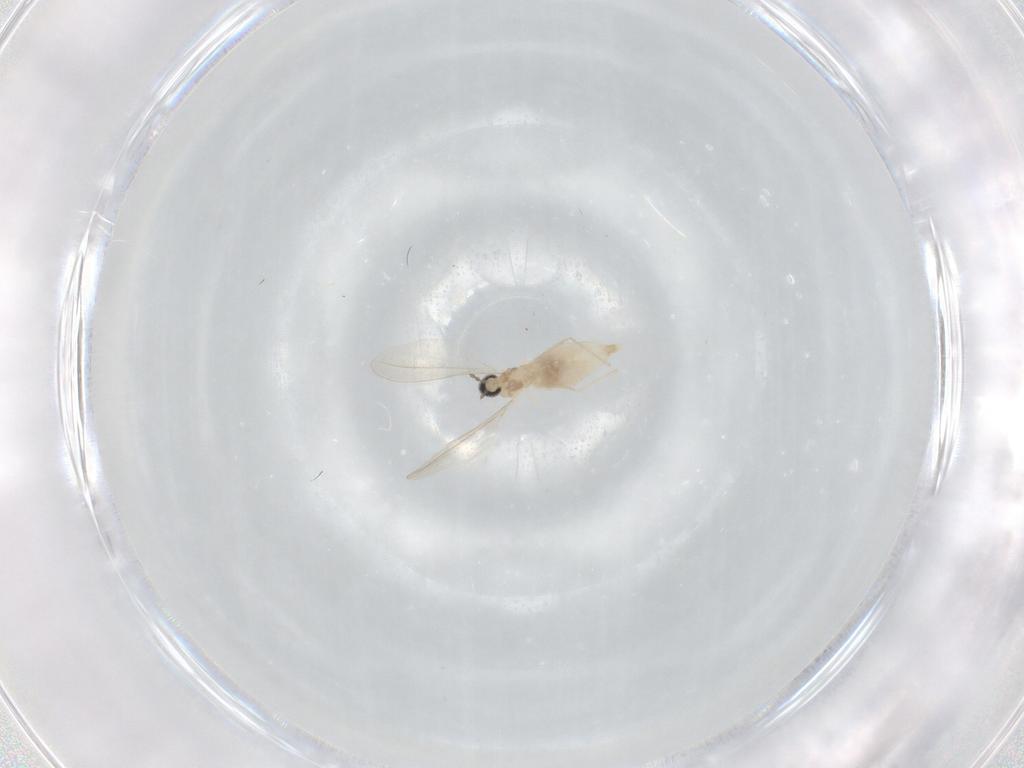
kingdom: Animalia
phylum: Arthropoda
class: Insecta
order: Diptera
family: Cecidomyiidae
